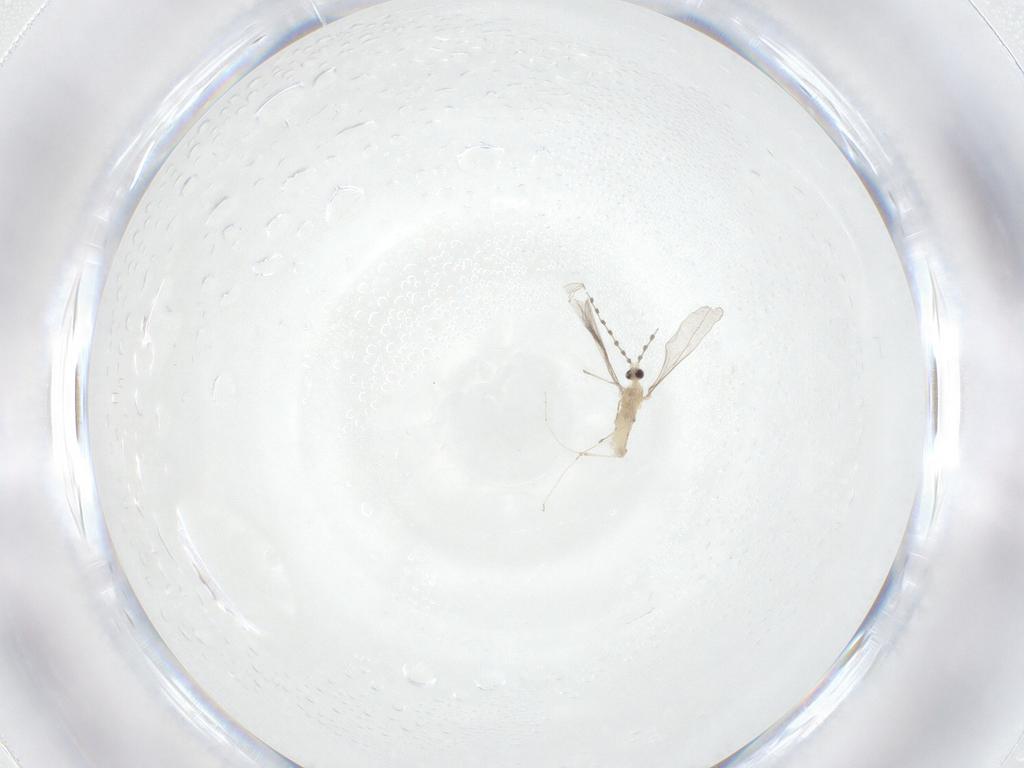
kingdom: Animalia
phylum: Arthropoda
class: Insecta
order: Diptera
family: Cecidomyiidae
